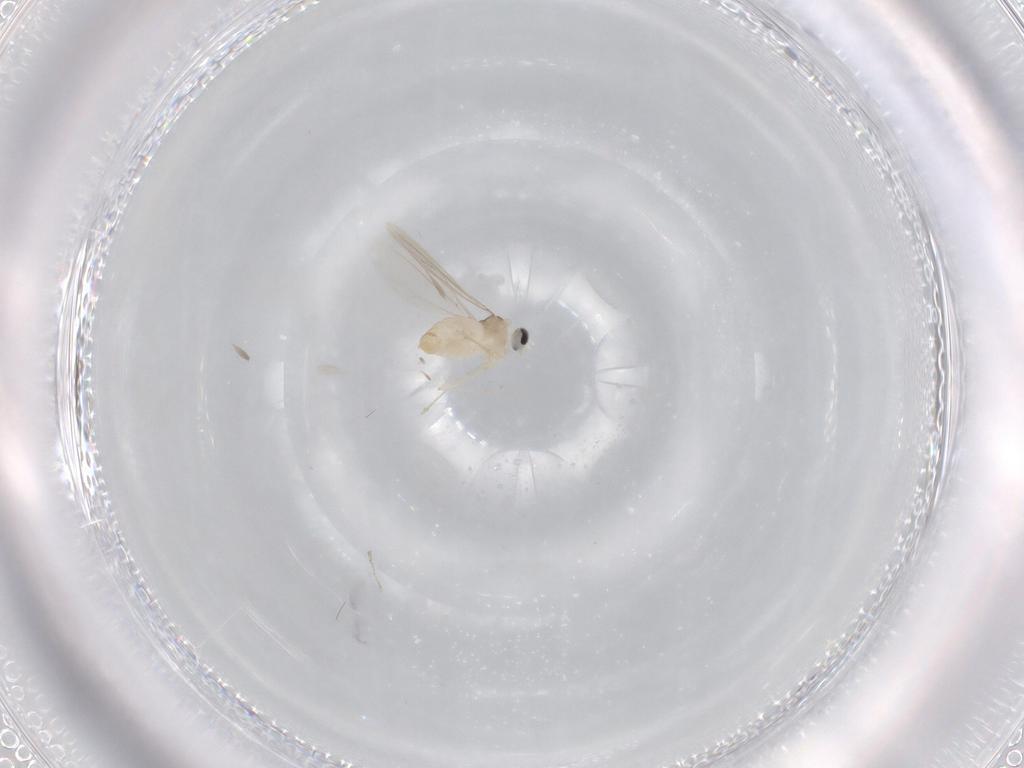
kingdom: Animalia
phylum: Arthropoda
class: Insecta
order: Diptera
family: Cecidomyiidae
